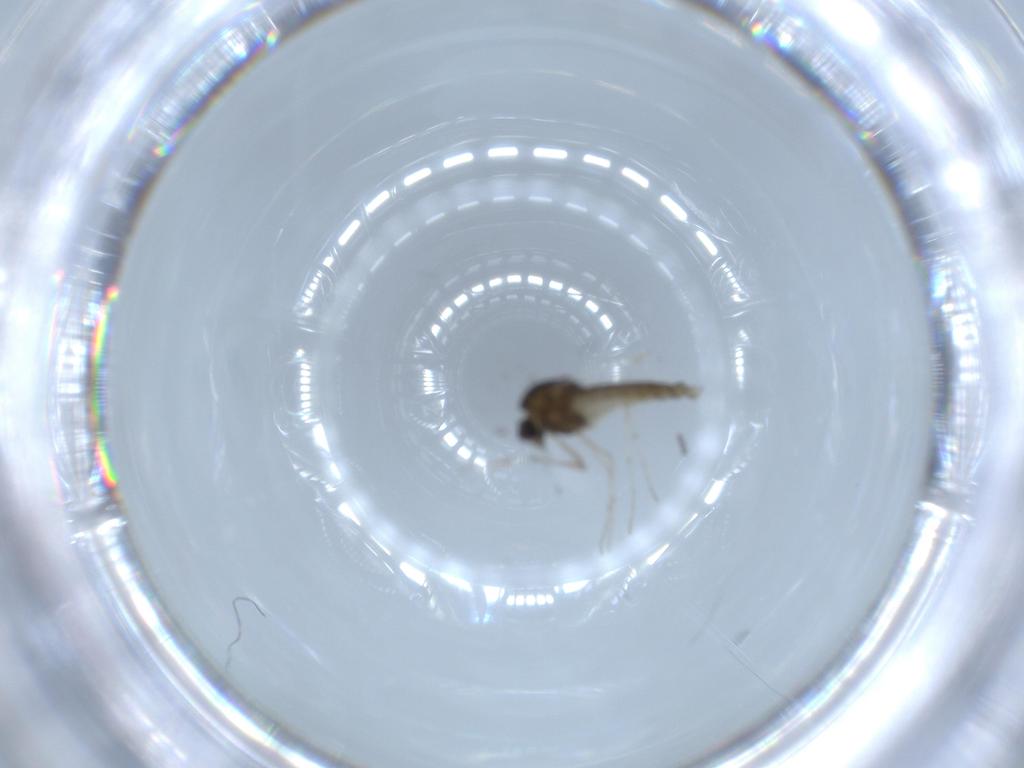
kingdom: Animalia
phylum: Arthropoda
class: Insecta
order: Diptera
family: Chironomidae
